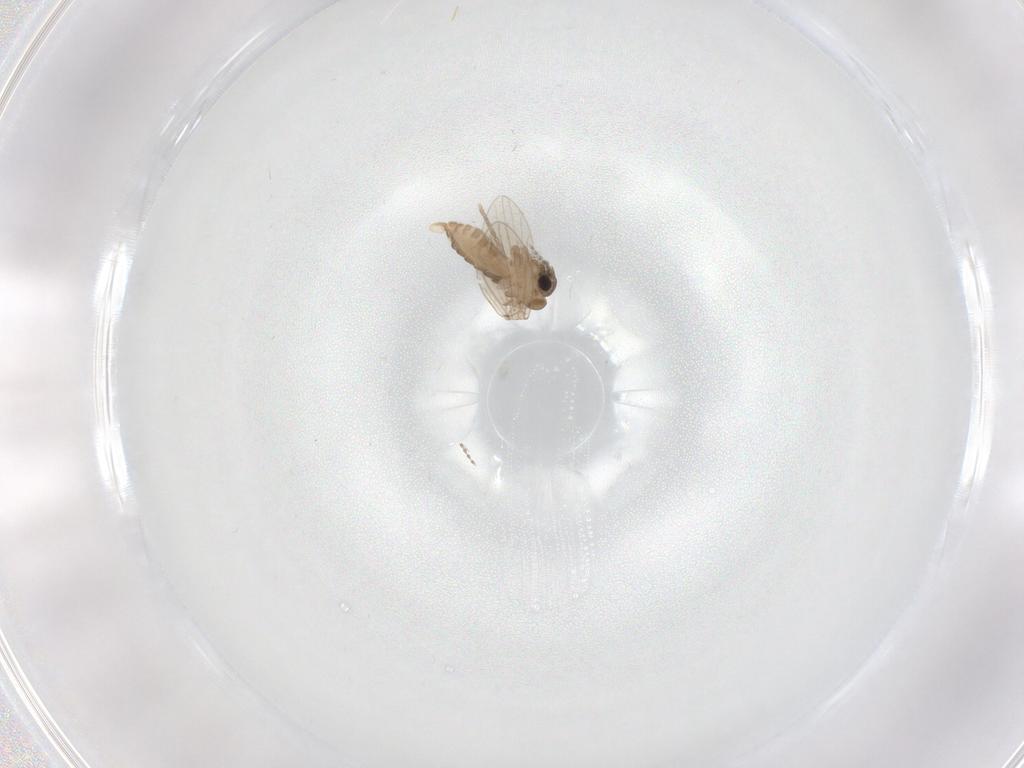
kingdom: Animalia
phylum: Arthropoda
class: Insecta
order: Diptera
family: Psychodidae
